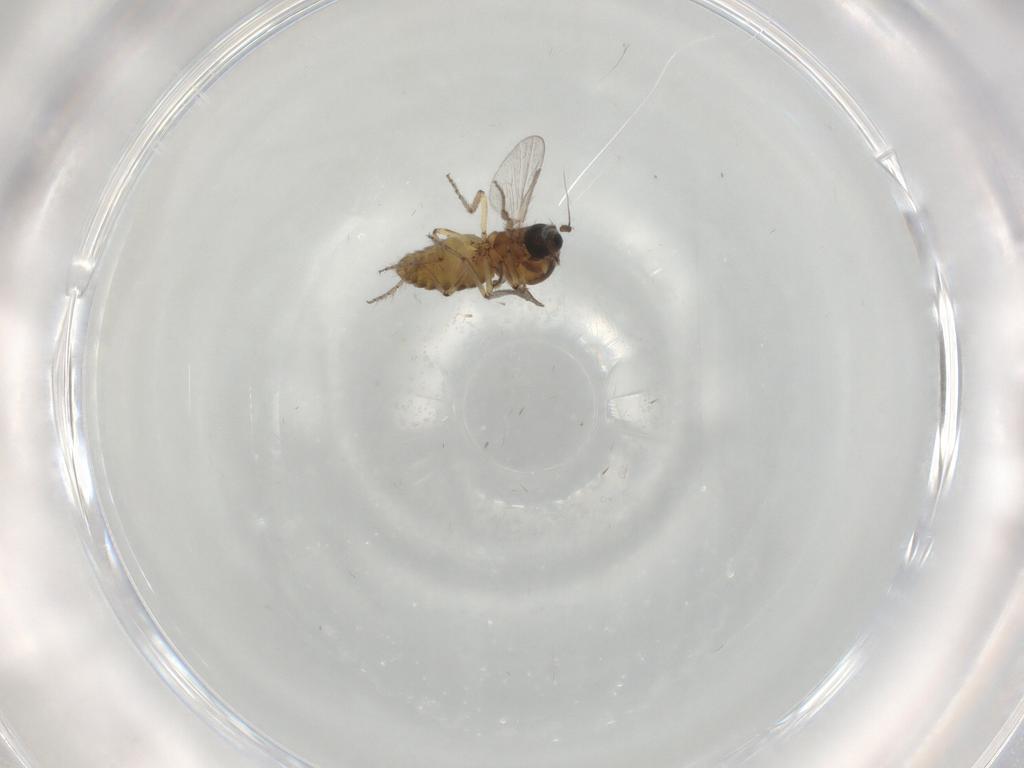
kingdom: Animalia
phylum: Arthropoda
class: Insecta
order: Diptera
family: Ceratopogonidae
